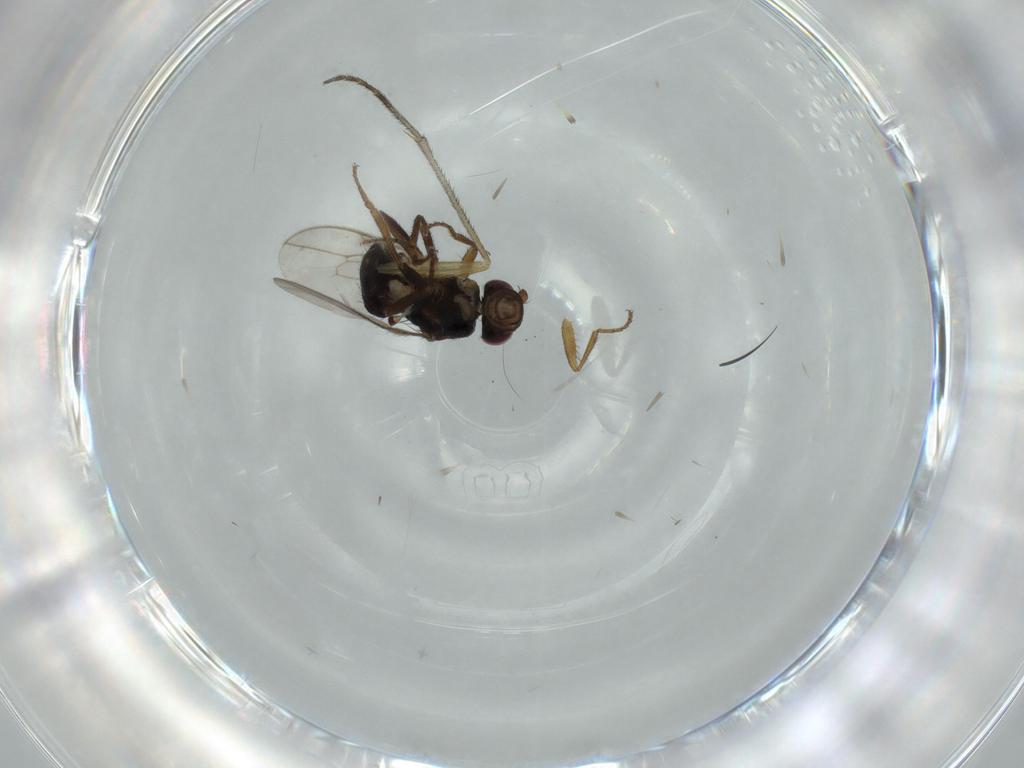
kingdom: Animalia
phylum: Arthropoda
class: Insecta
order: Diptera
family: Sphaeroceridae
